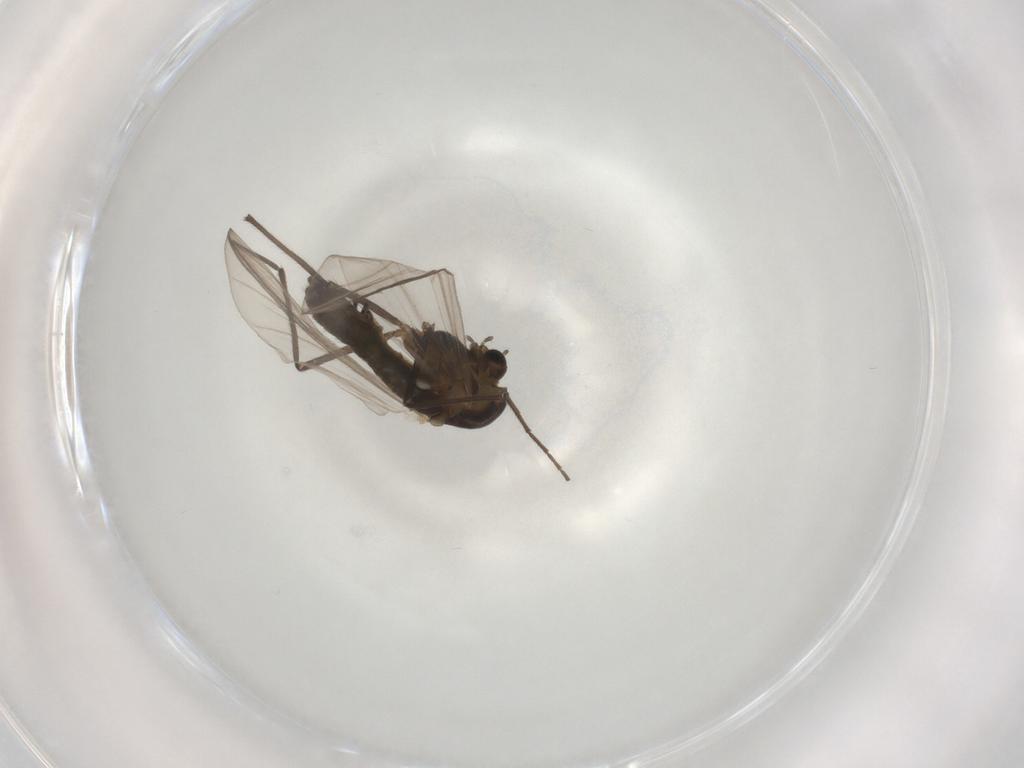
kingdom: Animalia
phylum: Arthropoda
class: Insecta
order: Diptera
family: Chironomidae
